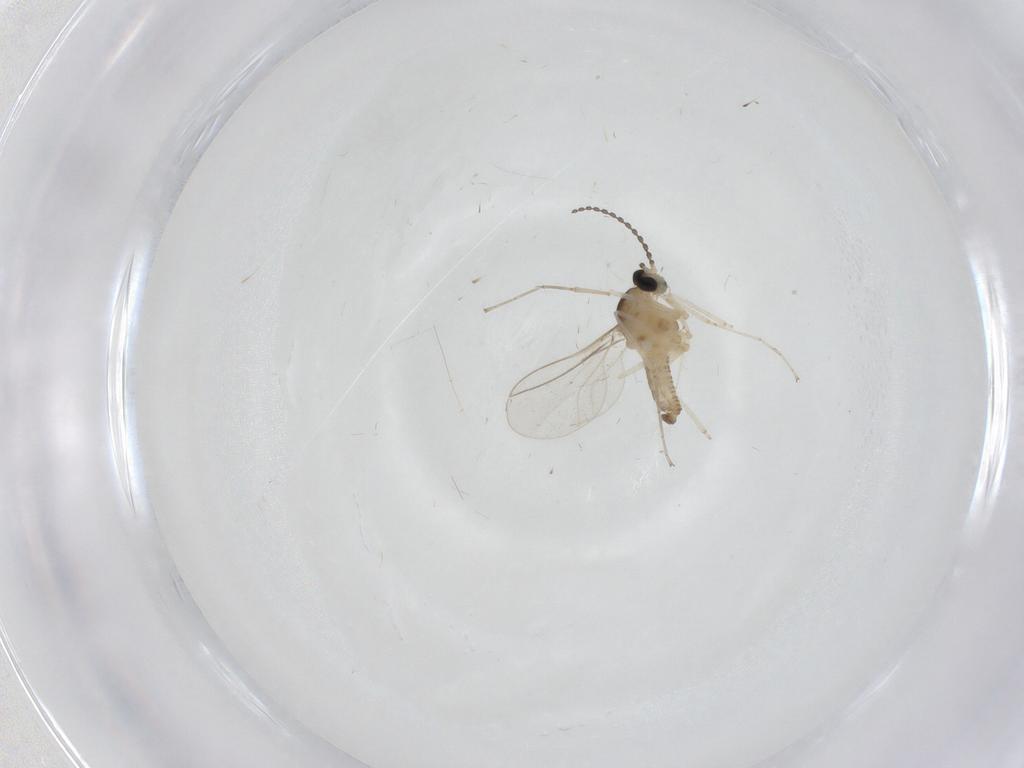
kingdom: Animalia
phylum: Arthropoda
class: Insecta
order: Diptera
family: Cecidomyiidae
